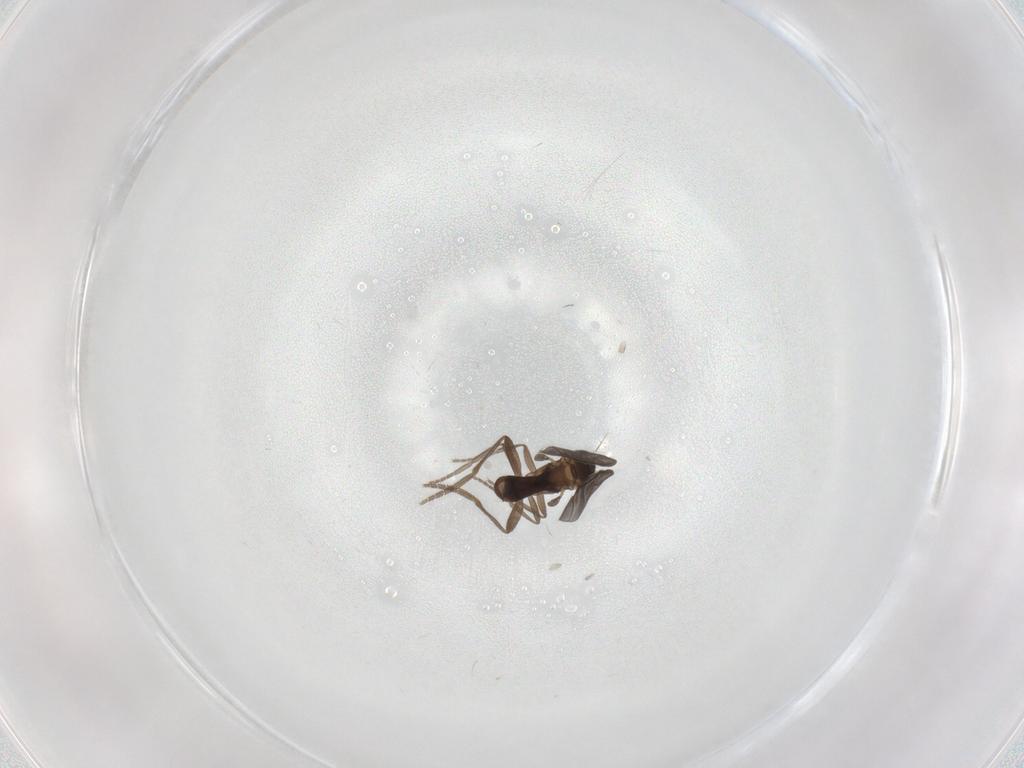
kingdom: Animalia
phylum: Arthropoda
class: Insecta
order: Diptera
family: Phoridae
